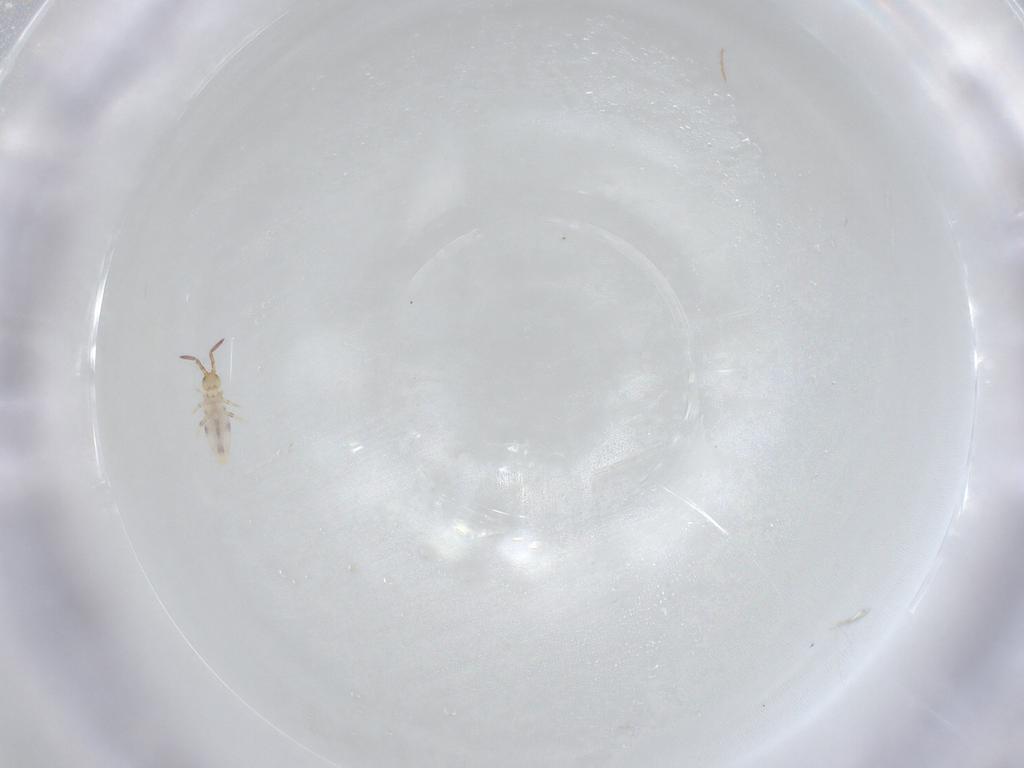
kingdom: Animalia
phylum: Arthropoda
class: Collembola
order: Poduromorpha
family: Hypogastruridae
